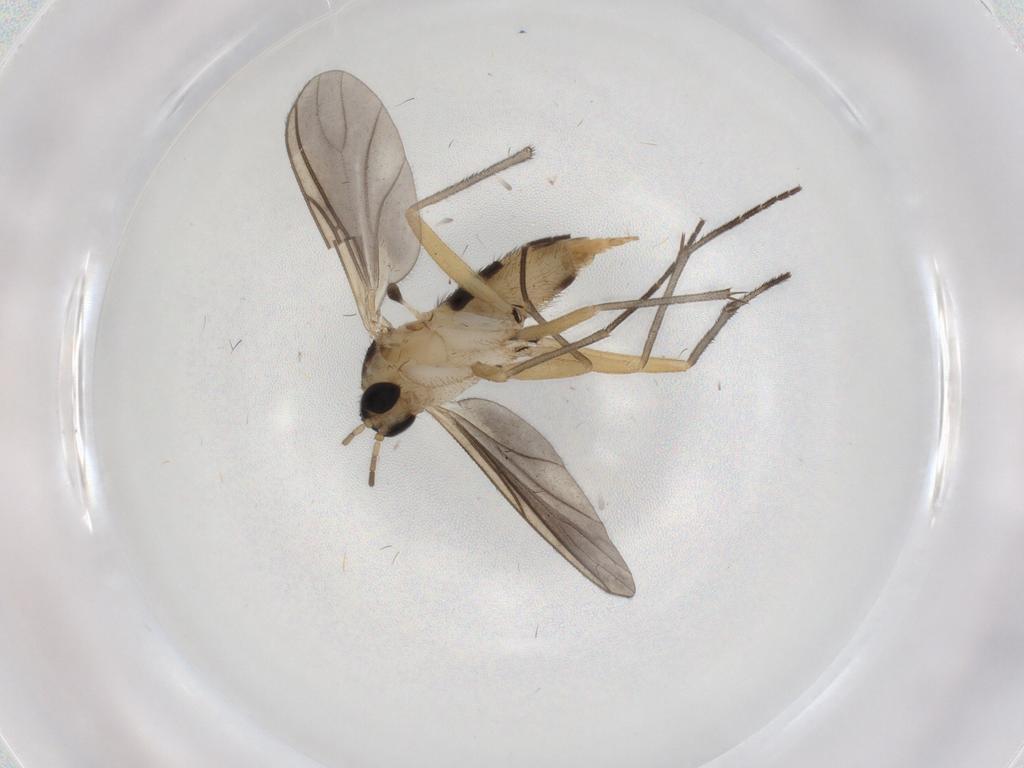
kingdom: Animalia
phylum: Arthropoda
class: Insecta
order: Diptera
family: Sciaridae
